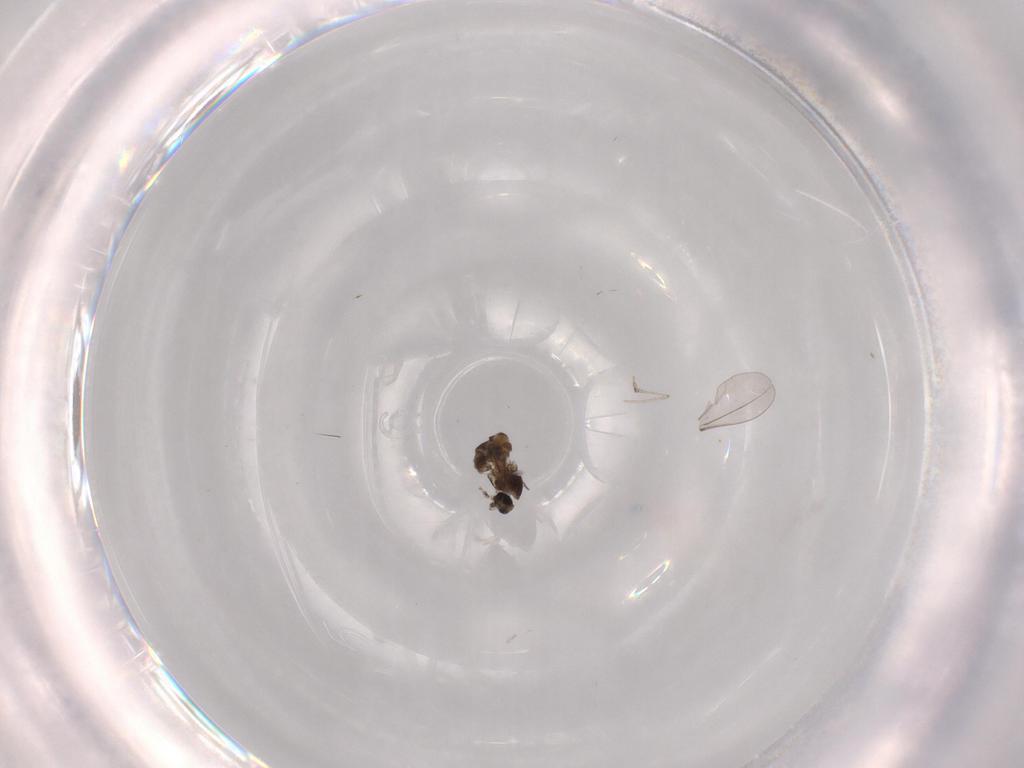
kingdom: Animalia
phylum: Arthropoda
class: Insecta
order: Diptera
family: Cecidomyiidae
